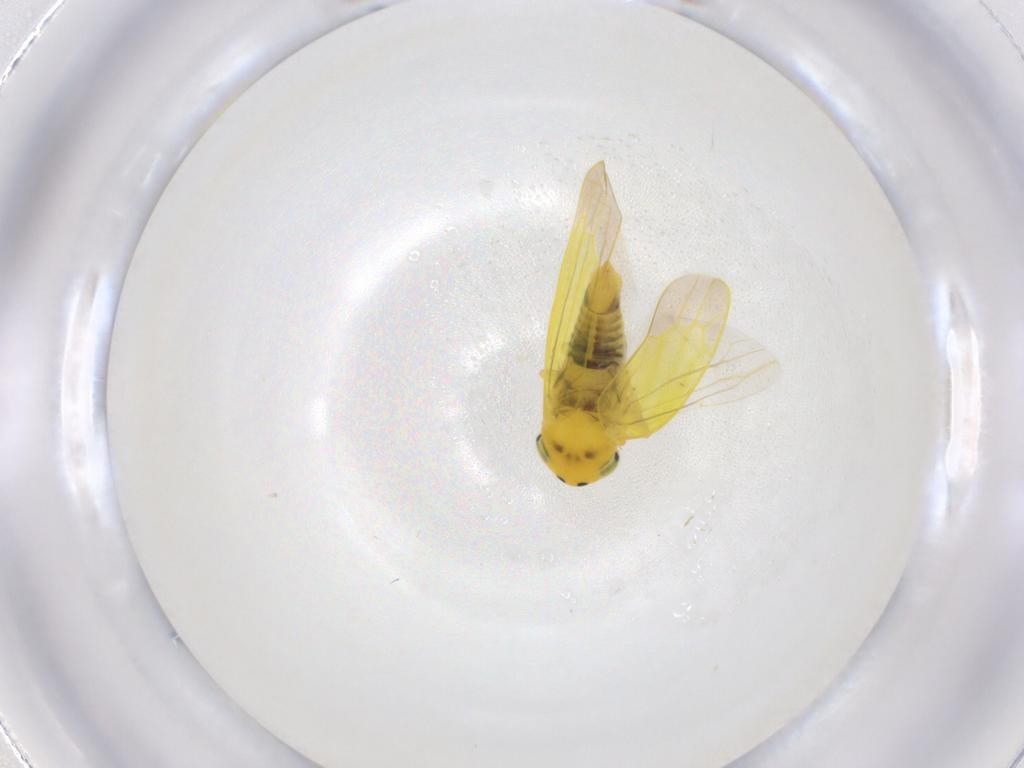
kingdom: Animalia
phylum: Arthropoda
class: Insecta
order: Hemiptera
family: Cicadellidae
